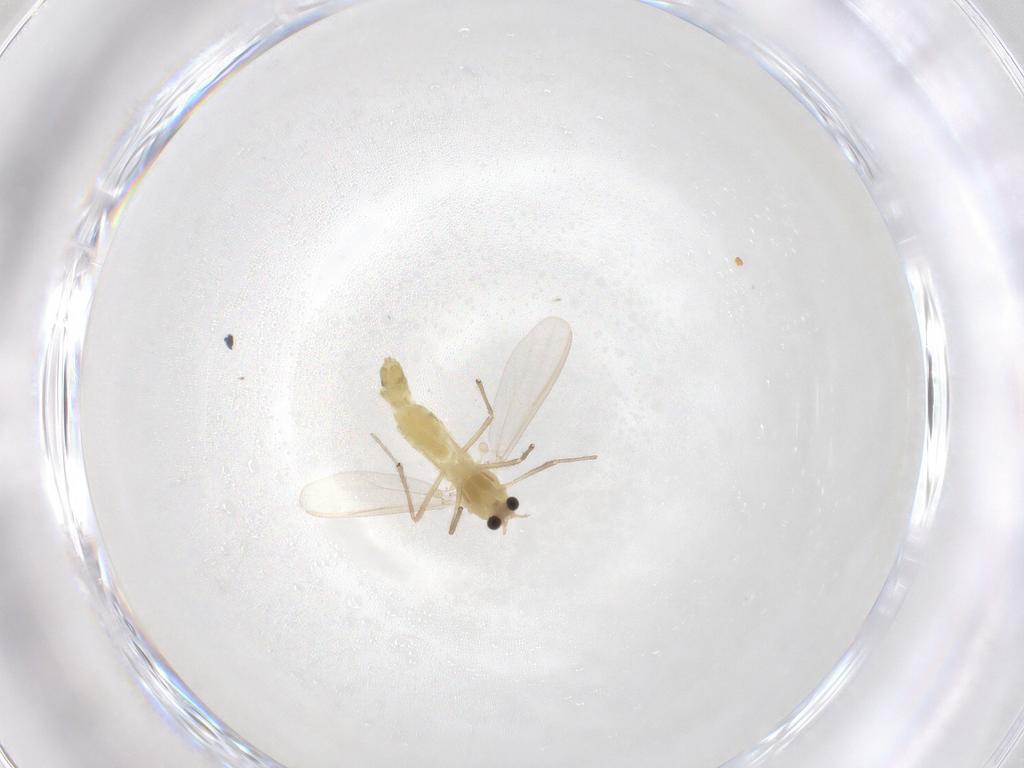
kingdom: Animalia
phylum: Arthropoda
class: Insecta
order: Diptera
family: Chironomidae
